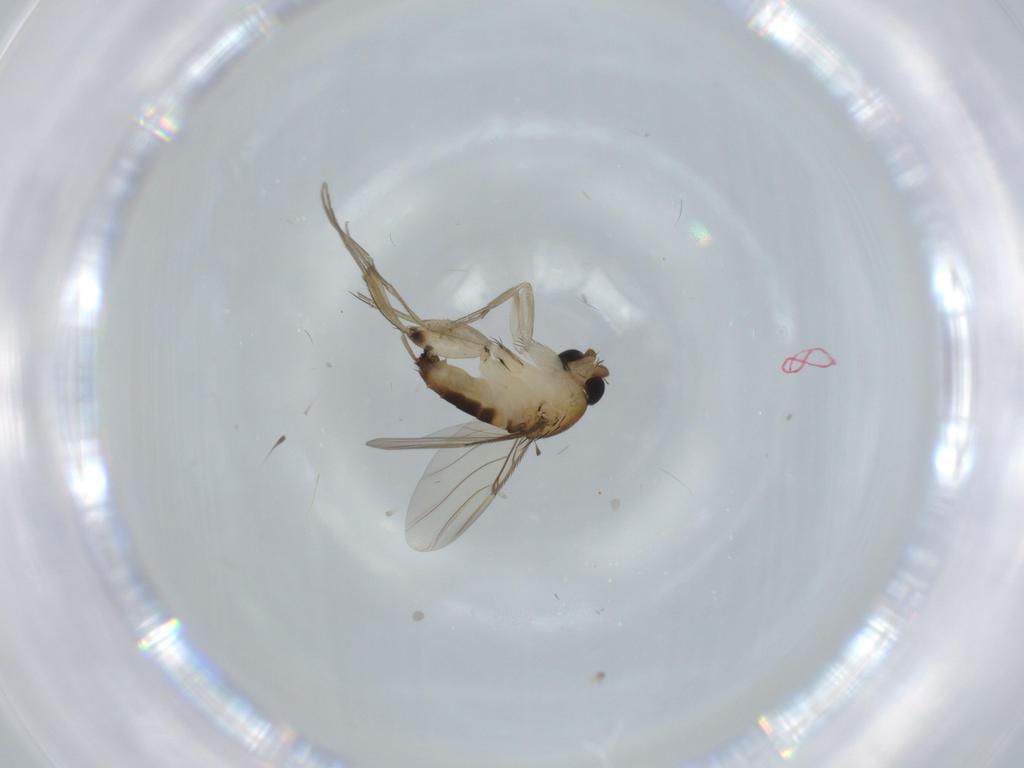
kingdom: Animalia
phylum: Arthropoda
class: Insecta
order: Diptera
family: Phoridae
